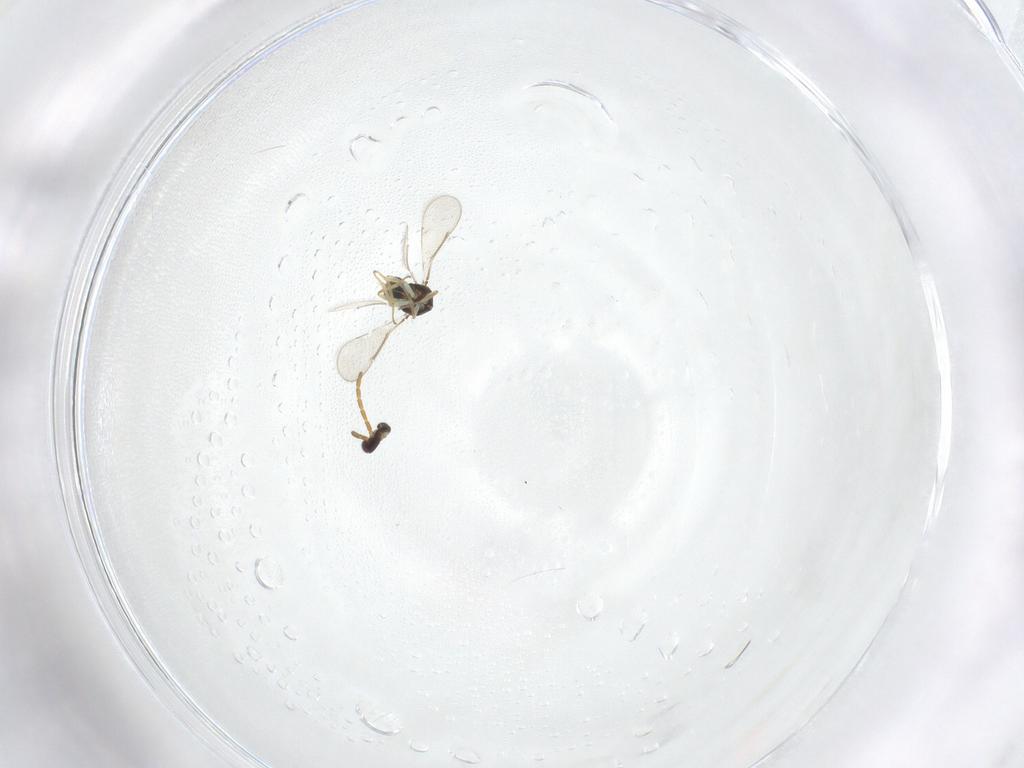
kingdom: Animalia
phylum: Arthropoda
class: Insecta
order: Hymenoptera
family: Aphelinidae
